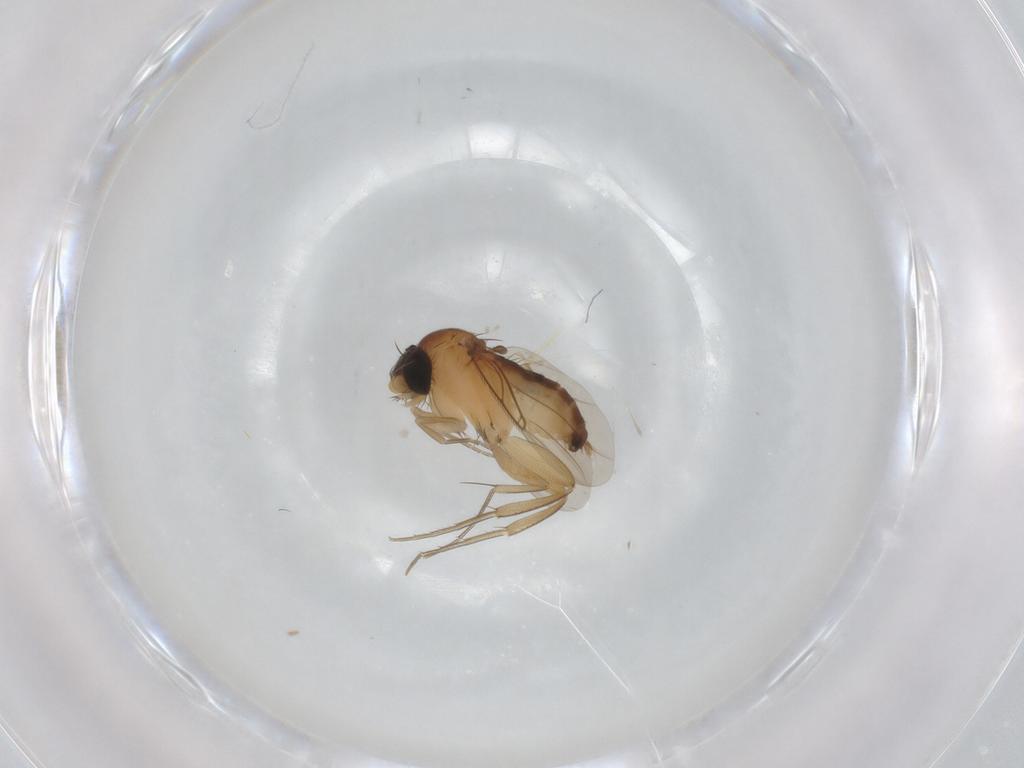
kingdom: Animalia
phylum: Arthropoda
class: Insecta
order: Diptera
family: Phoridae
